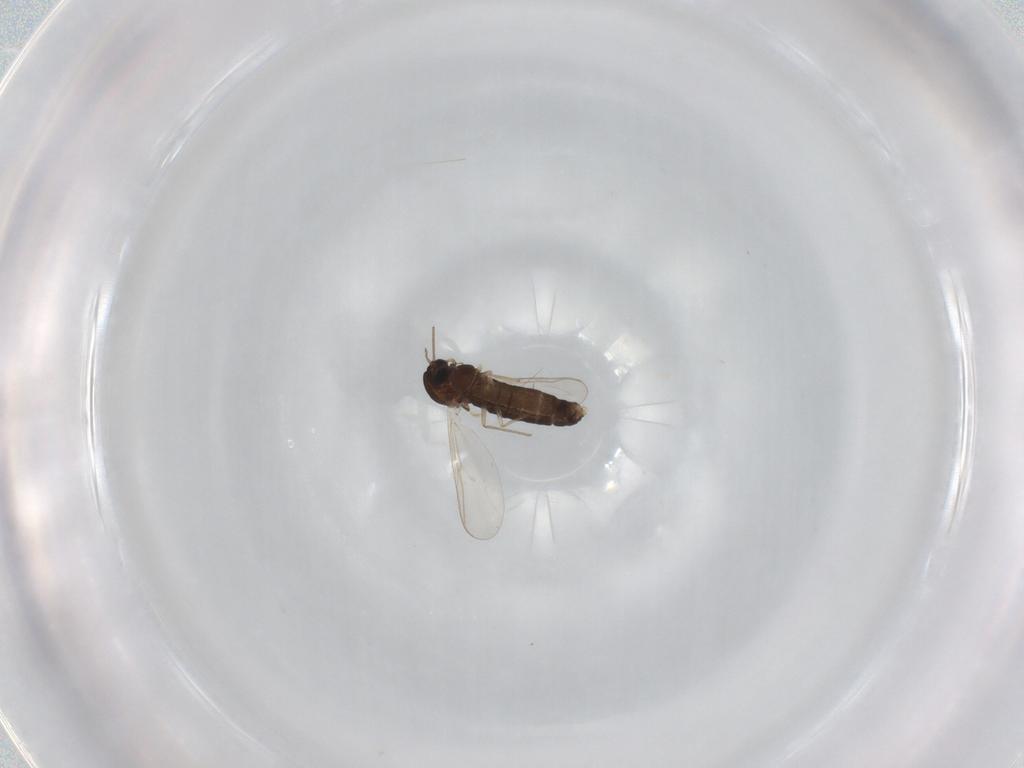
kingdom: Animalia
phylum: Arthropoda
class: Insecta
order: Diptera
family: Chironomidae
